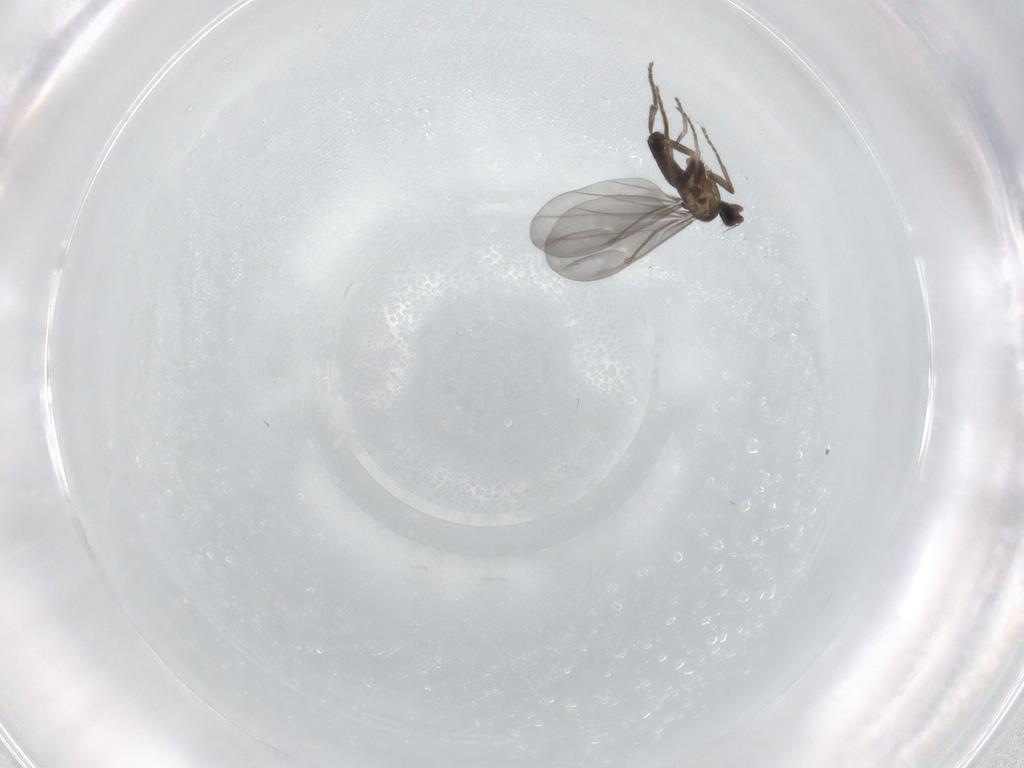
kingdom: Animalia
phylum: Arthropoda
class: Insecta
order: Diptera
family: Phoridae
